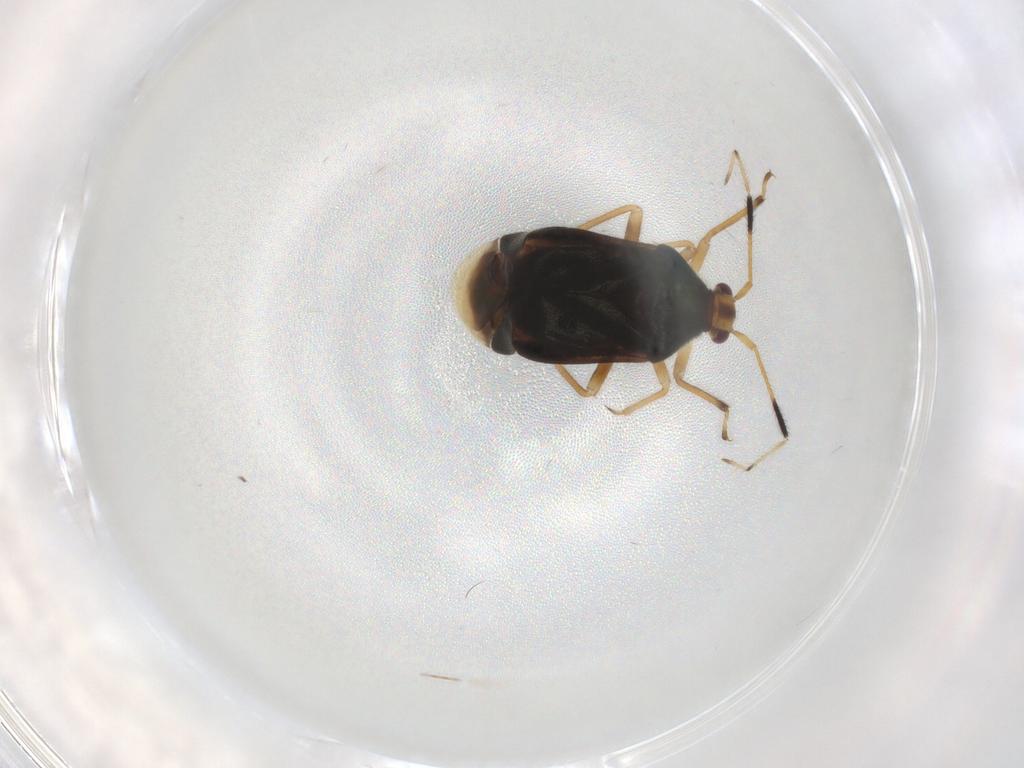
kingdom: Animalia
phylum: Arthropoda
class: Insecta
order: Hemiptera
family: Miridae
